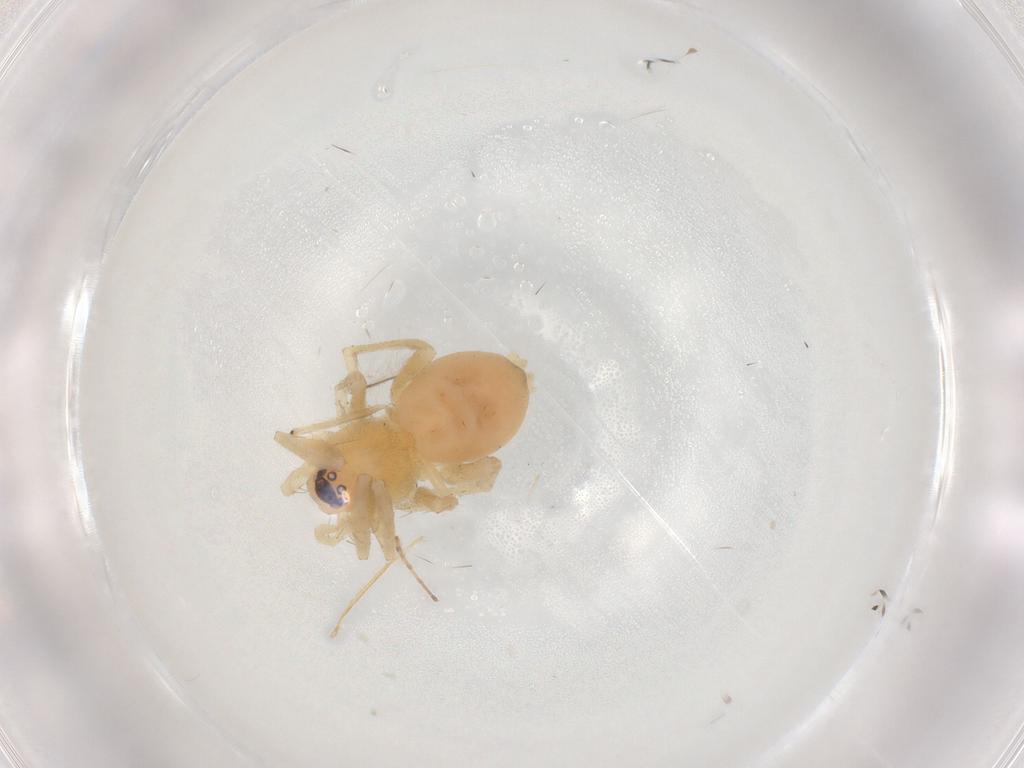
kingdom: Animalia
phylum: Arthropoda
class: Arachnida
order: Araneae
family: Gnaphosidae
